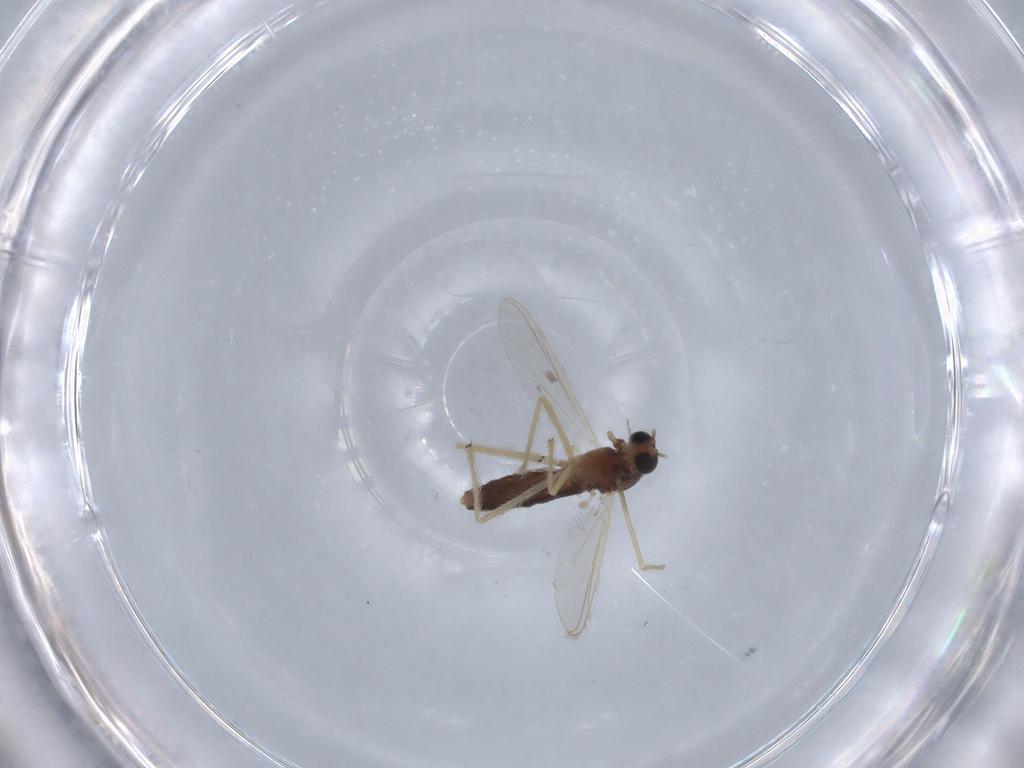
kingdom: Animalia
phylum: Arthropoda
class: Insecta
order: Diptera
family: Chironomidae
